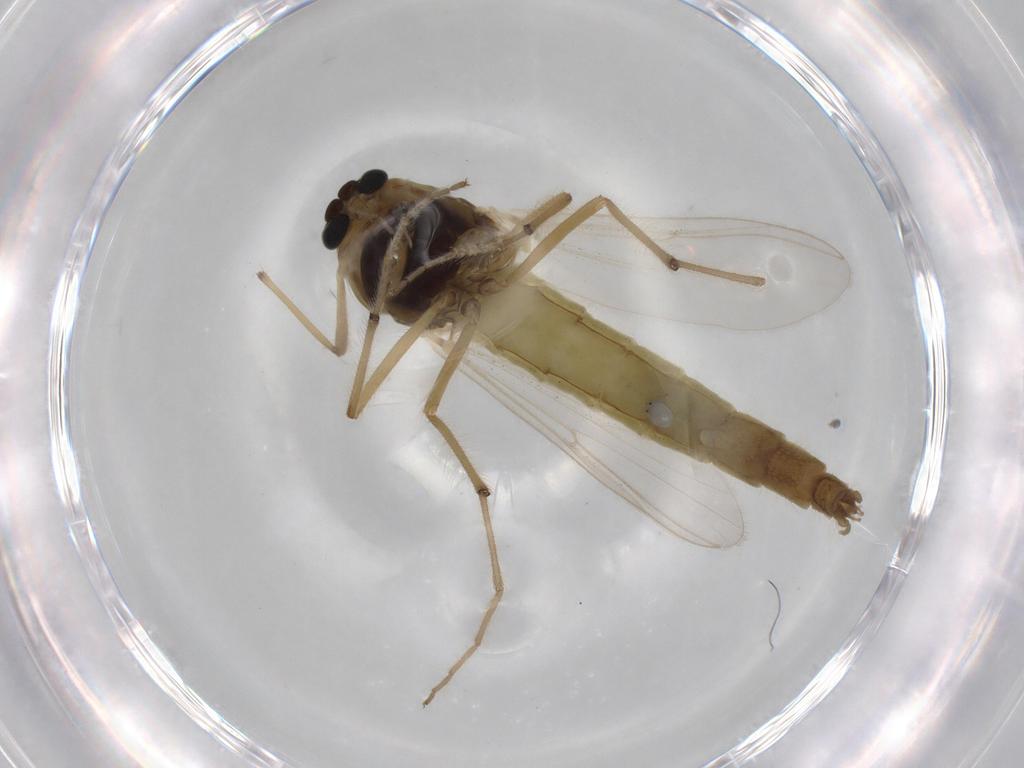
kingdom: Animalia
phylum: Arthropoda
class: Insecta
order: Diptera
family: Chironomidae
